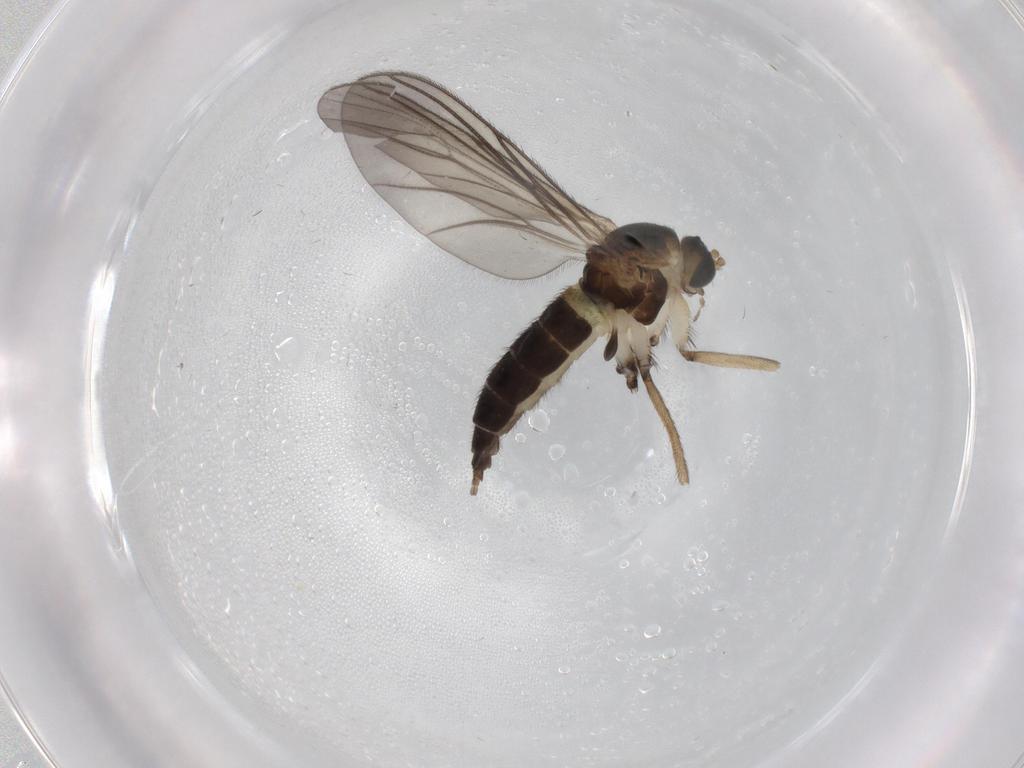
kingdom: Animalia
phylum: Arthropoda
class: Insecta
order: Diptera
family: Sciaridae
